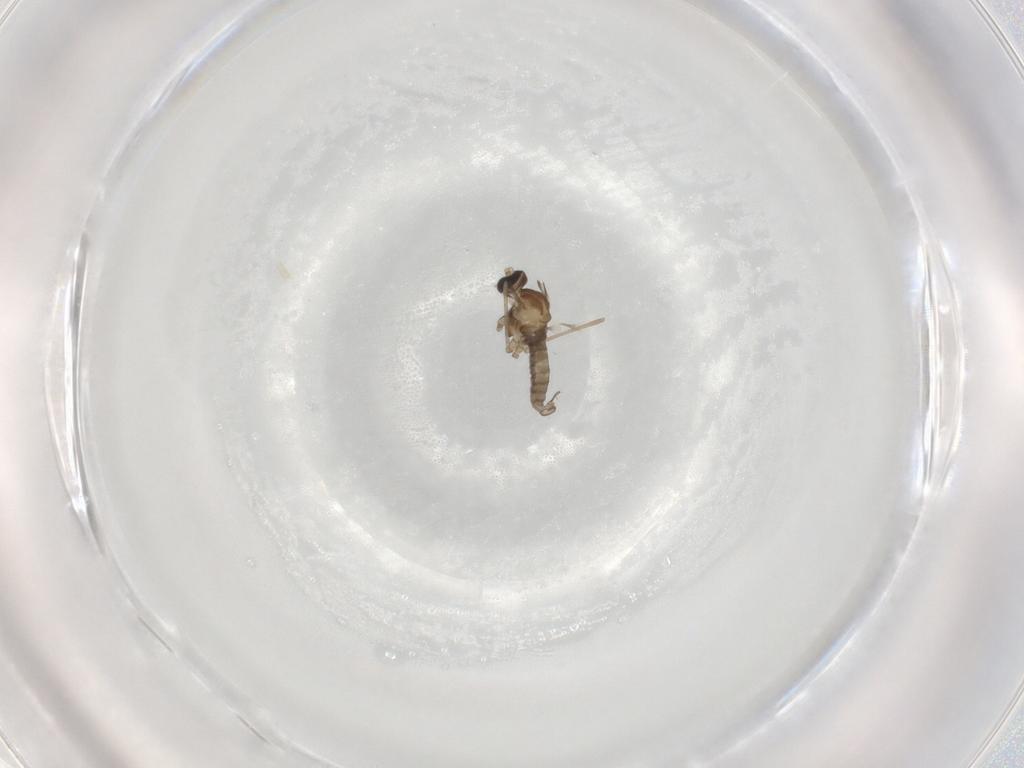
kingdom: Animalia
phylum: Arthropoda
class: Insecta
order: Diptera
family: Cecidomyiidae
